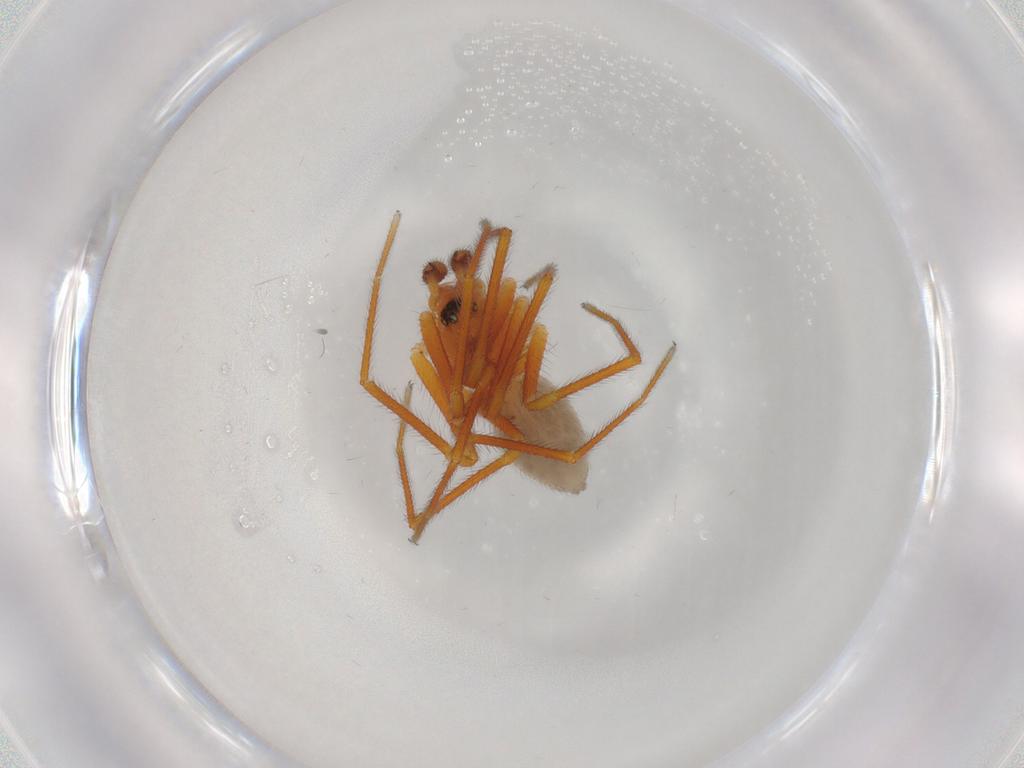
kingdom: Animalia
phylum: Arthropoda
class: Arachnida
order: Araneae
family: Linyphiidae
